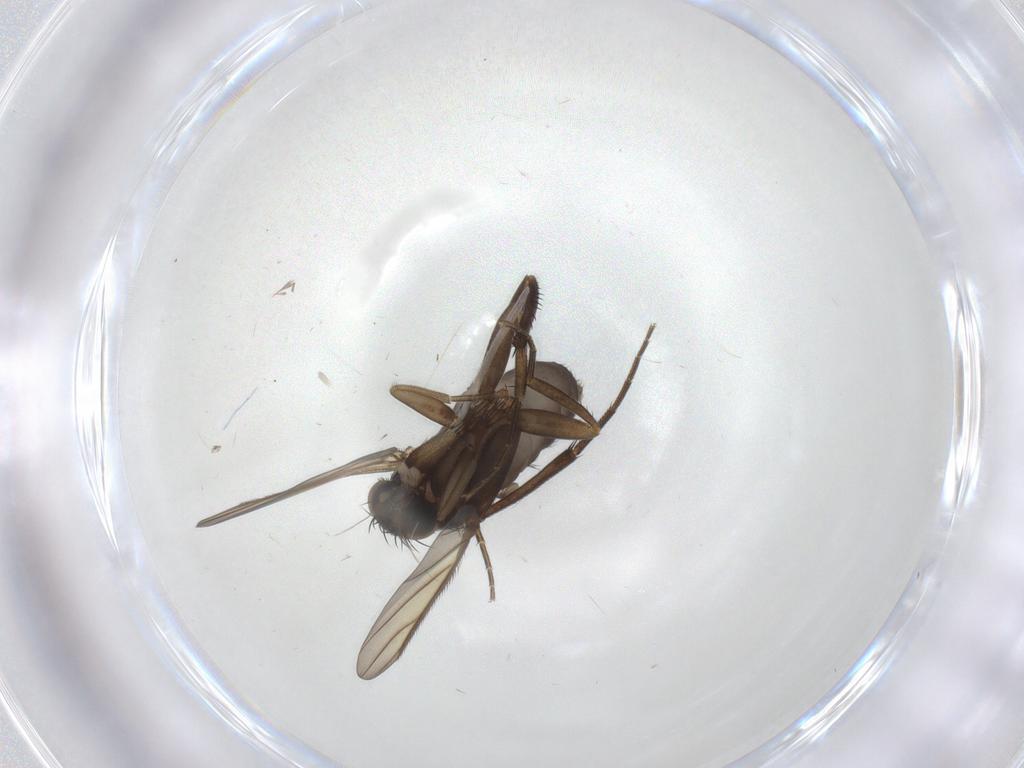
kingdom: Animalia
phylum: Arthropoda
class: Insecta
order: Diptera
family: Phoridae
